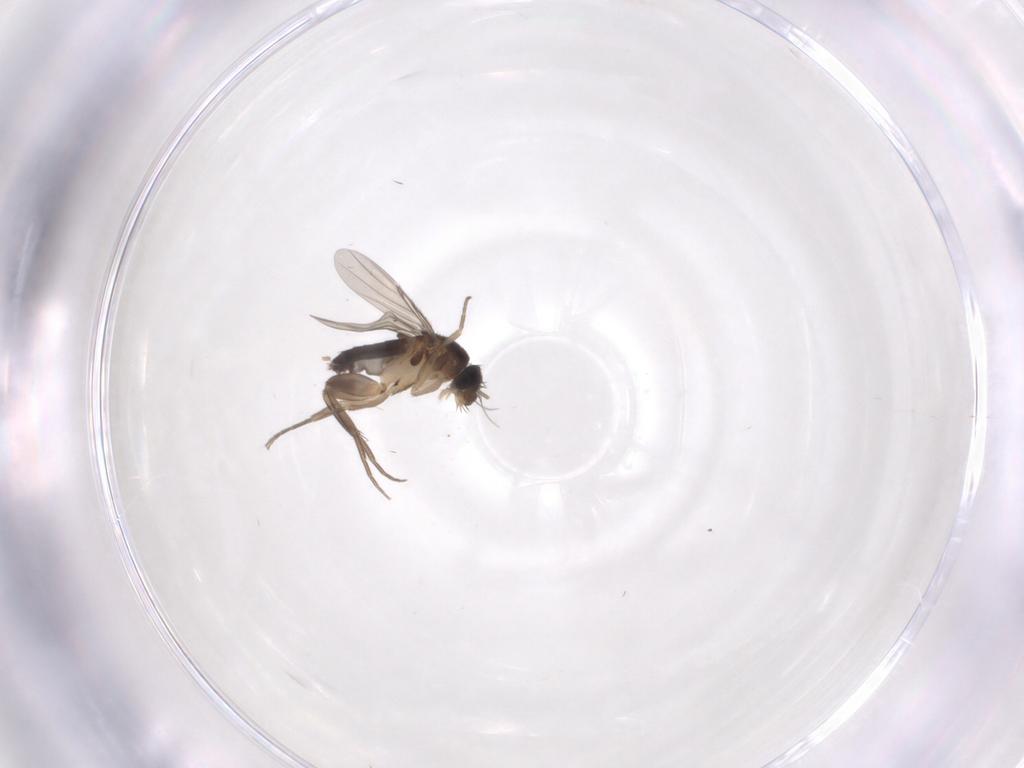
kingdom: Animalia
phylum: Arthropoda
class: Insecta
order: Diptera
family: Phoridae
